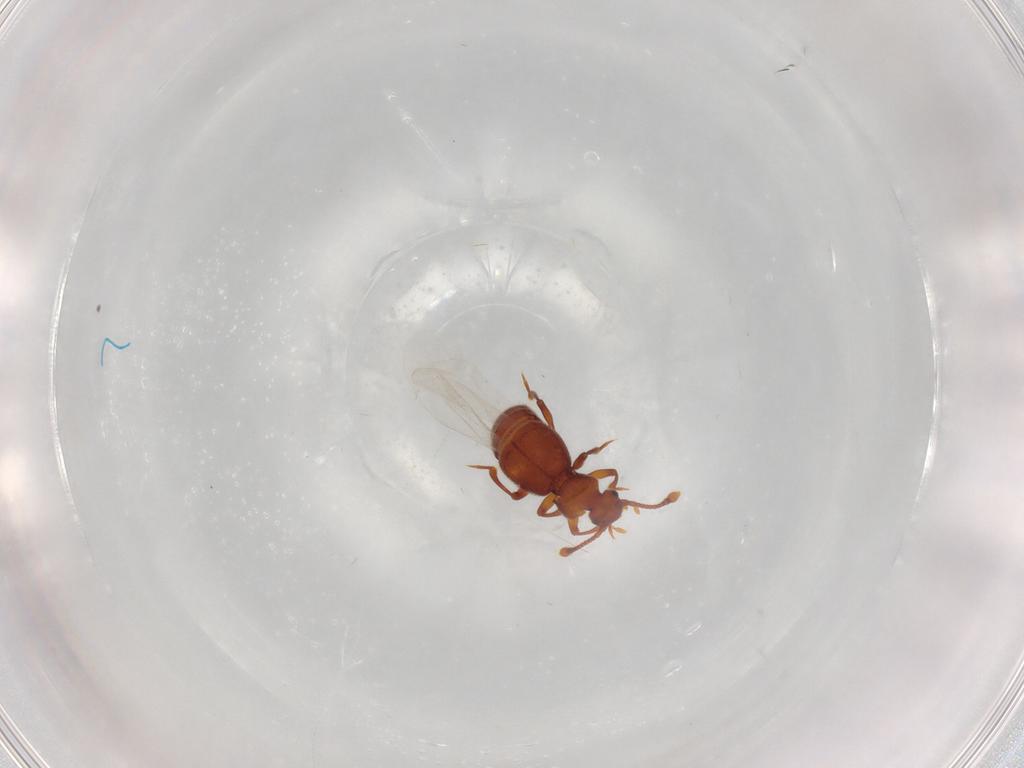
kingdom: Animalia
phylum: Arthropoda
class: Insecta
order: Coleoptera
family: Staphylinidae
